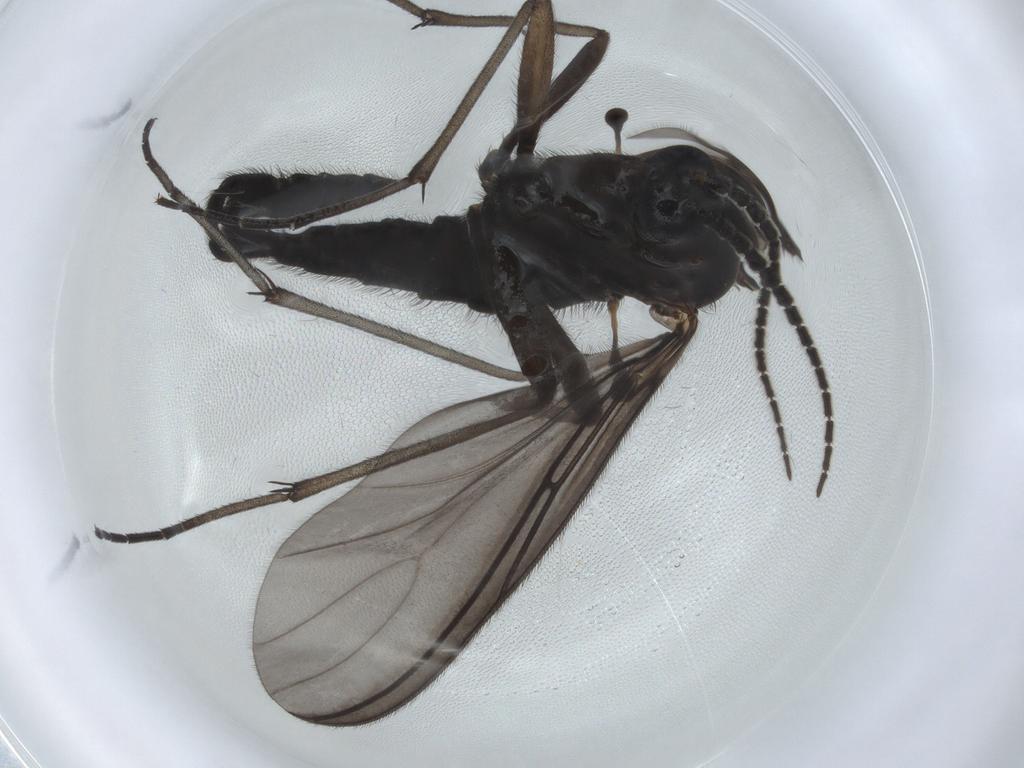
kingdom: Animalia
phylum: Arthropoda
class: Insecta
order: Diptera
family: Sciaridae
